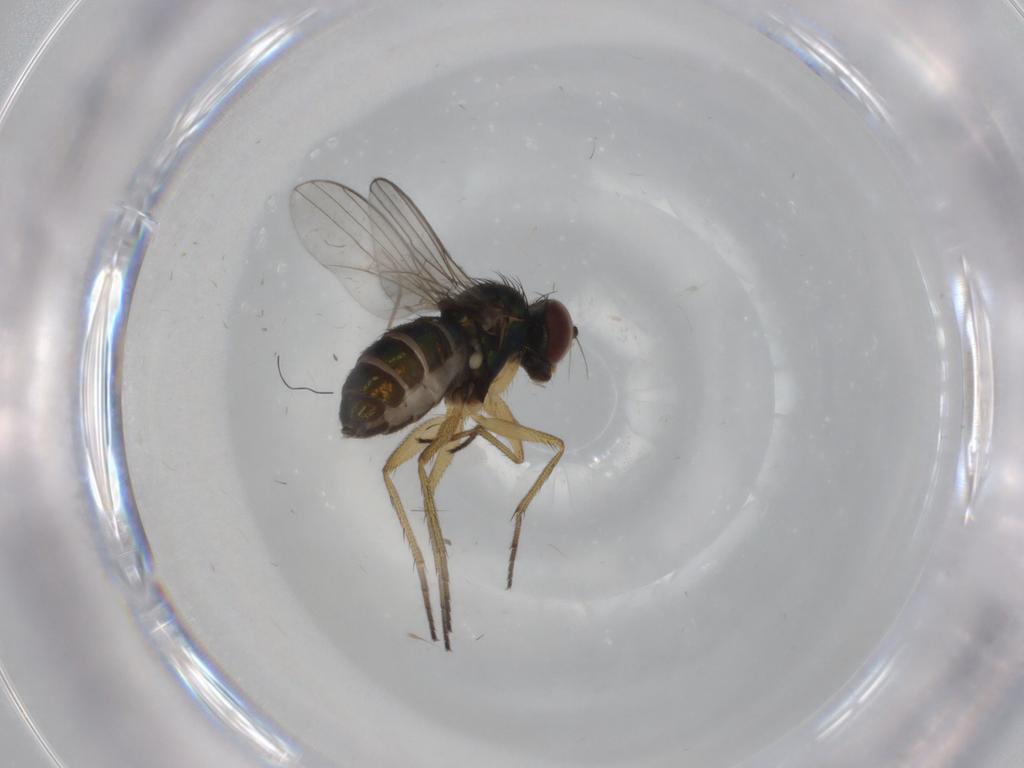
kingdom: Animalia
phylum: Arthropoda
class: Insecta
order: Diptera
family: Dolichopodidae
